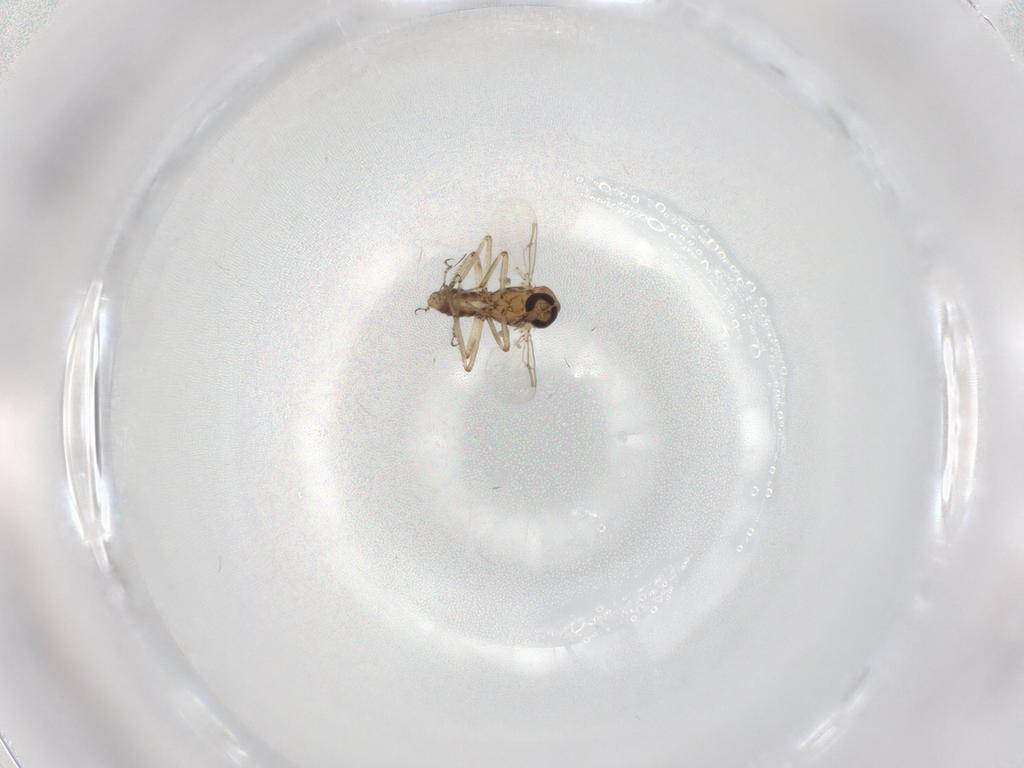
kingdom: Animalia
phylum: Arthropoda
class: Insecta
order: Diptera
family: Ceratopogonidae
